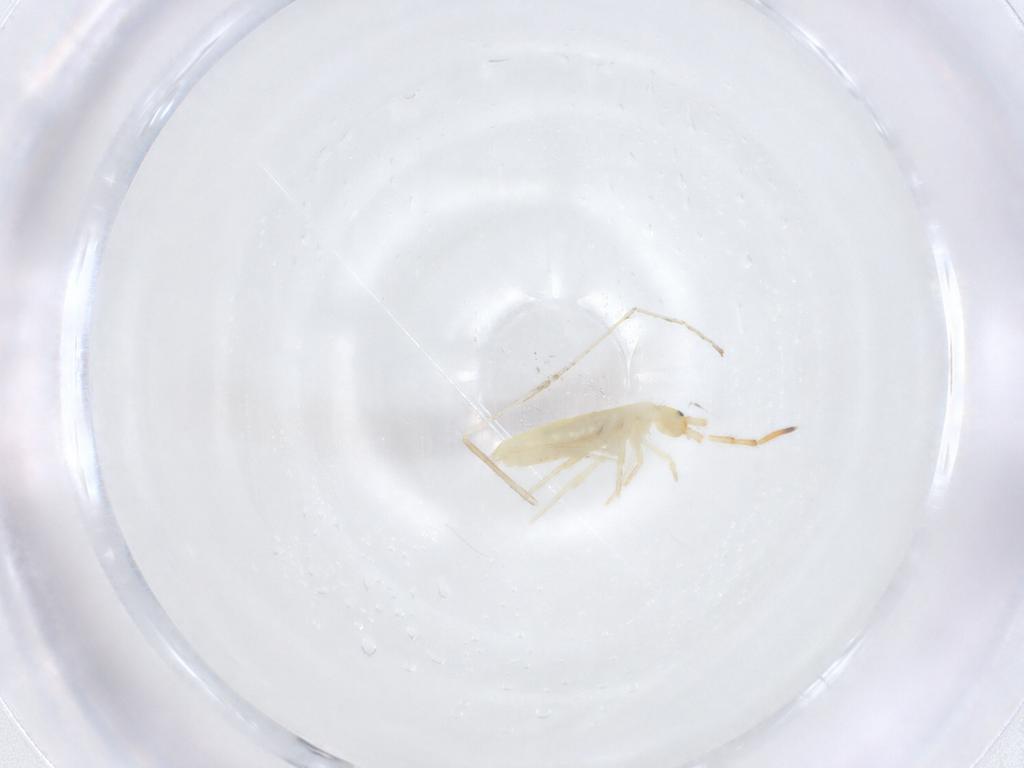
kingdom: Animalia
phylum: Arthropoda
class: Collembola
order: Entomobryomorpha
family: Entomobryidae
